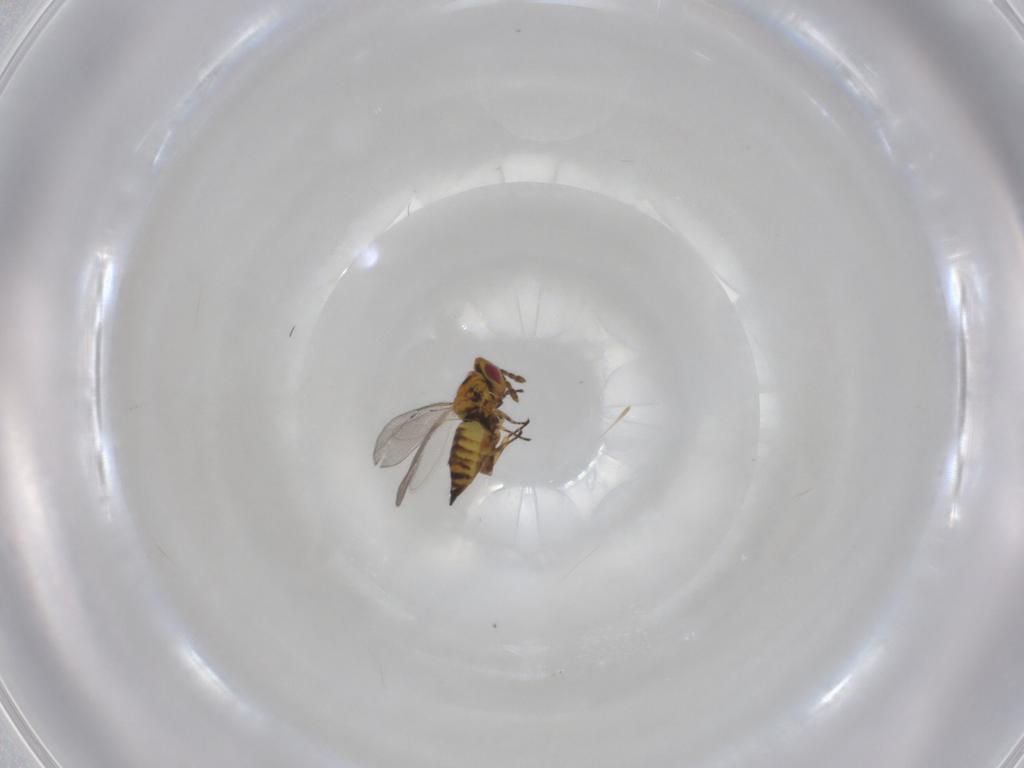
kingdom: Animalia
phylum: Arthropoda
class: Insecta
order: Hymenoptera
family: Eulophidae
